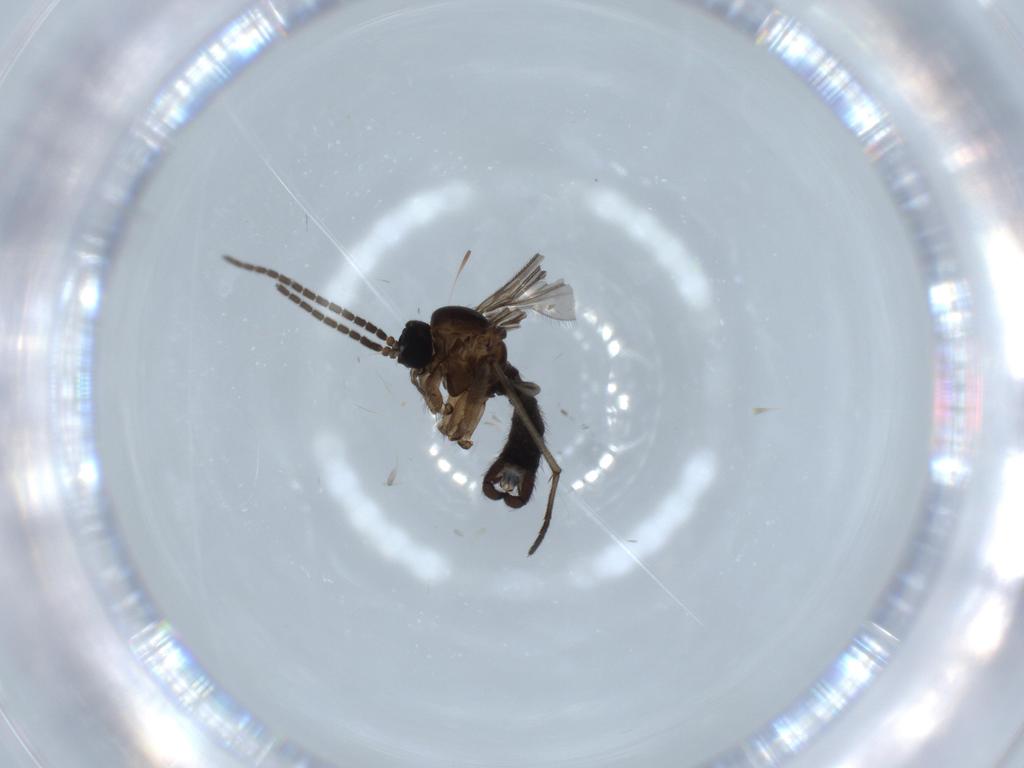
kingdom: Animalia
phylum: Arthropoda
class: Insecta
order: Diptera
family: Sciaridae
